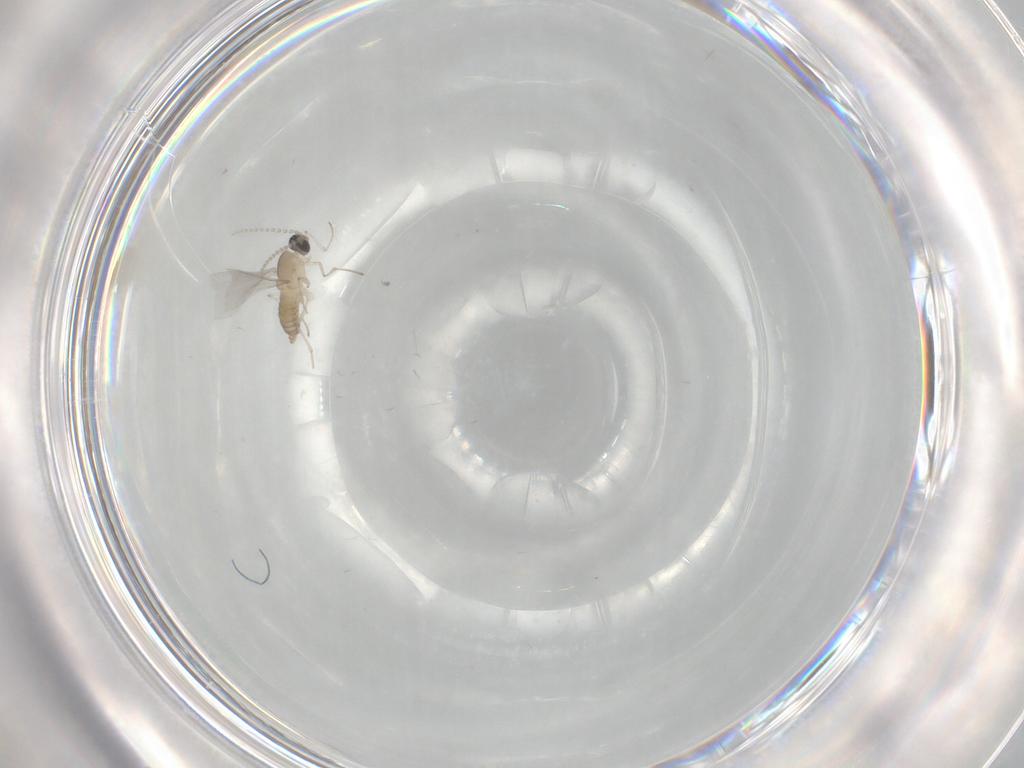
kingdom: Animalia
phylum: Arthropoda
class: Insecta
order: Diptera
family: Cecidomyiidae
